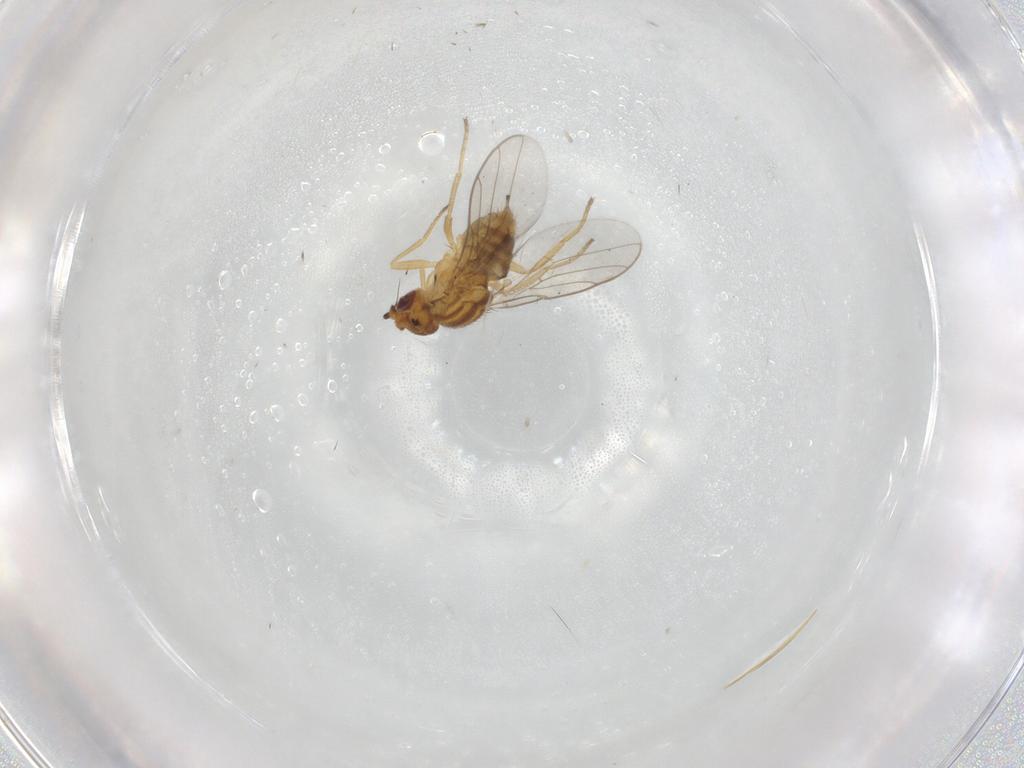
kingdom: Animalia
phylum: Arthropoda
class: Insecta
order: Diptera
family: Chloropidae
